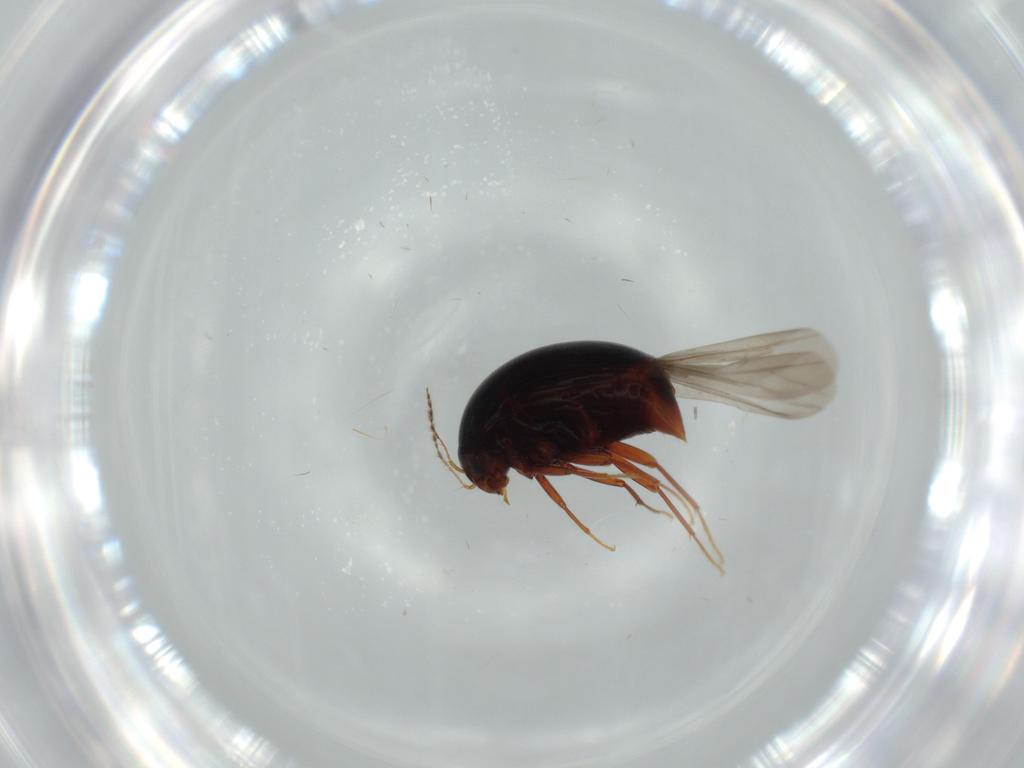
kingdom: Animalia
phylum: Arthropoda
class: Insecta
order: Coleoptera
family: Staphylinidae
